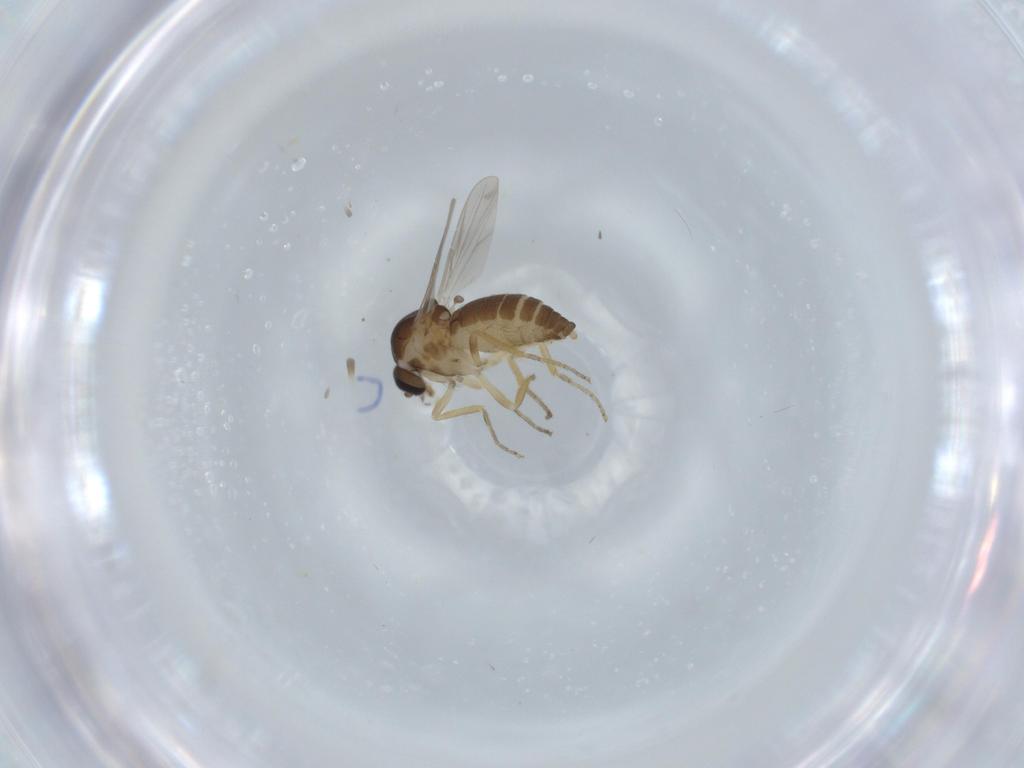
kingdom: Animalia
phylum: Arthropoda
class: Insecta
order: Diptera
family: Ceratopogonidae
